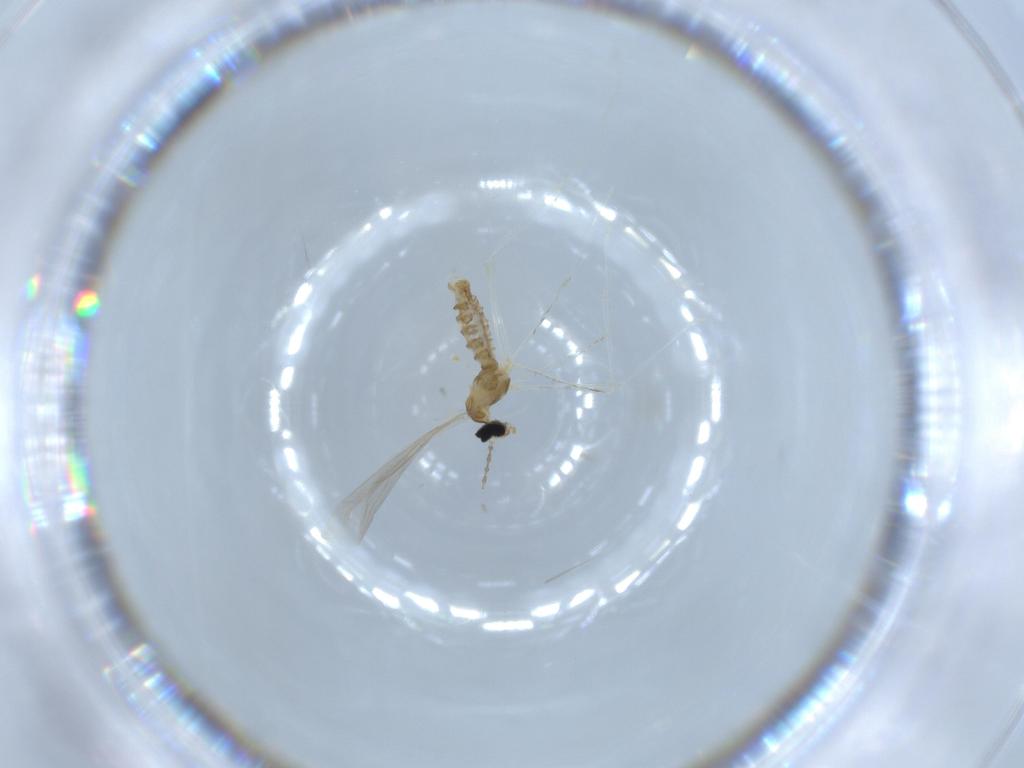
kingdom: Animalia
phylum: Arthropoda
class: Insecta
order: Diptera
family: Cecidomyiidae
